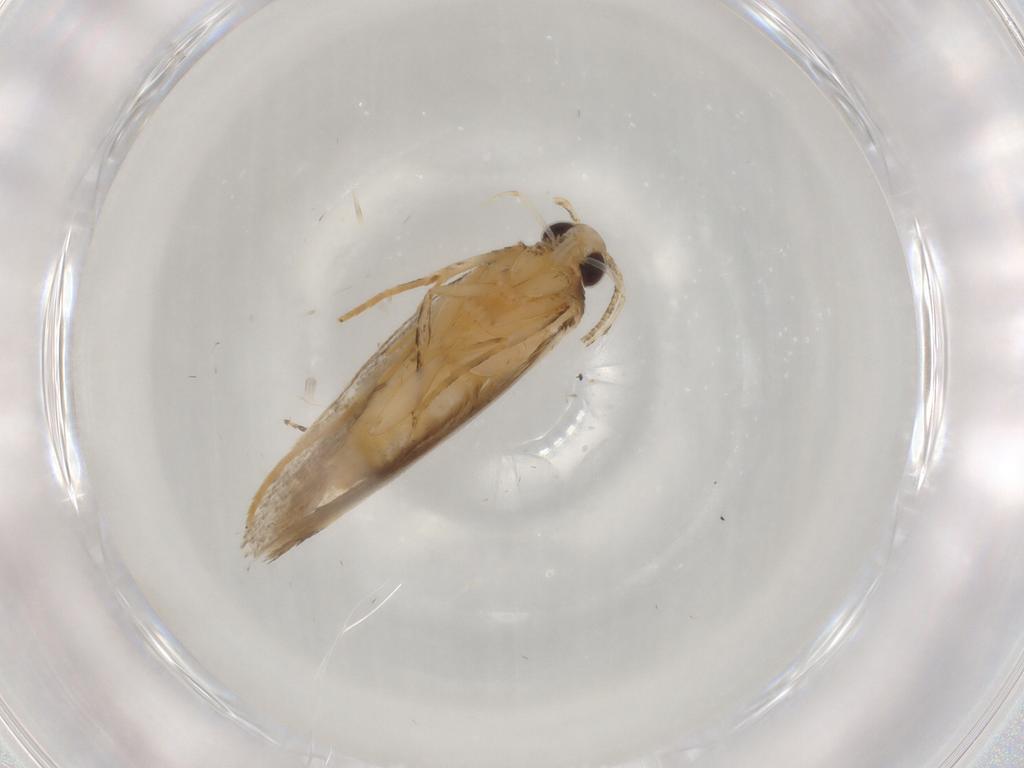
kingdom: Animalia
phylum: Arthropoda
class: Insecta
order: Lepidoptera
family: Autostichidae
